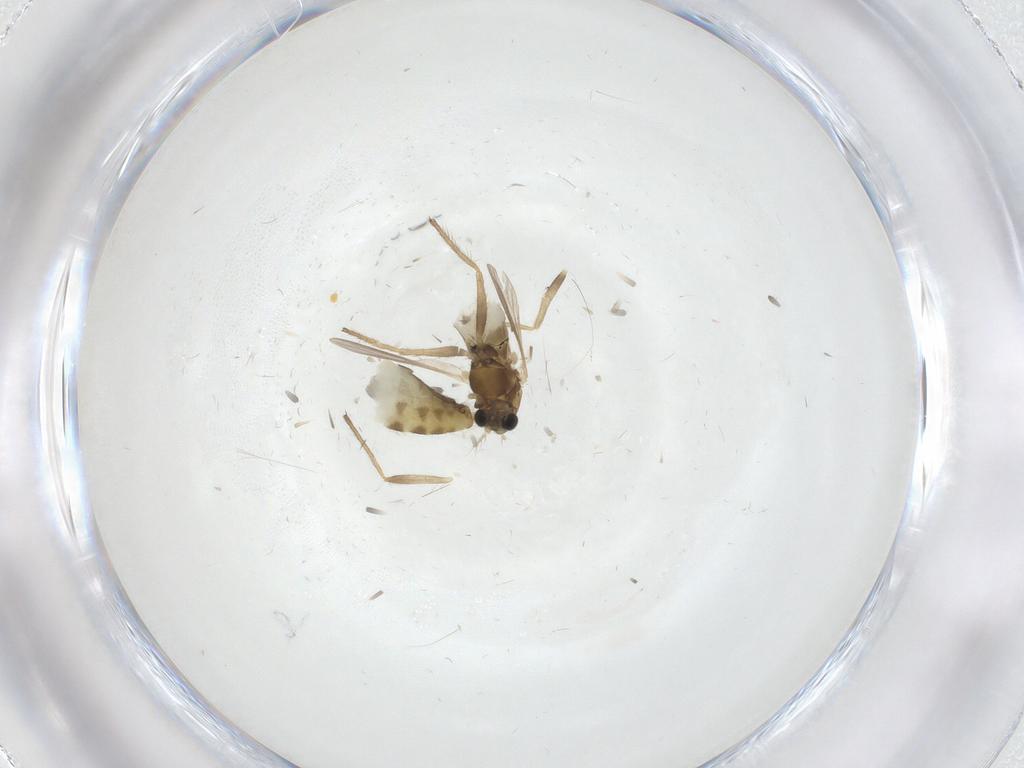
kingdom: Animalia
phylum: Arthropoda
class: Insecta
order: Diptera
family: Chironomidae
